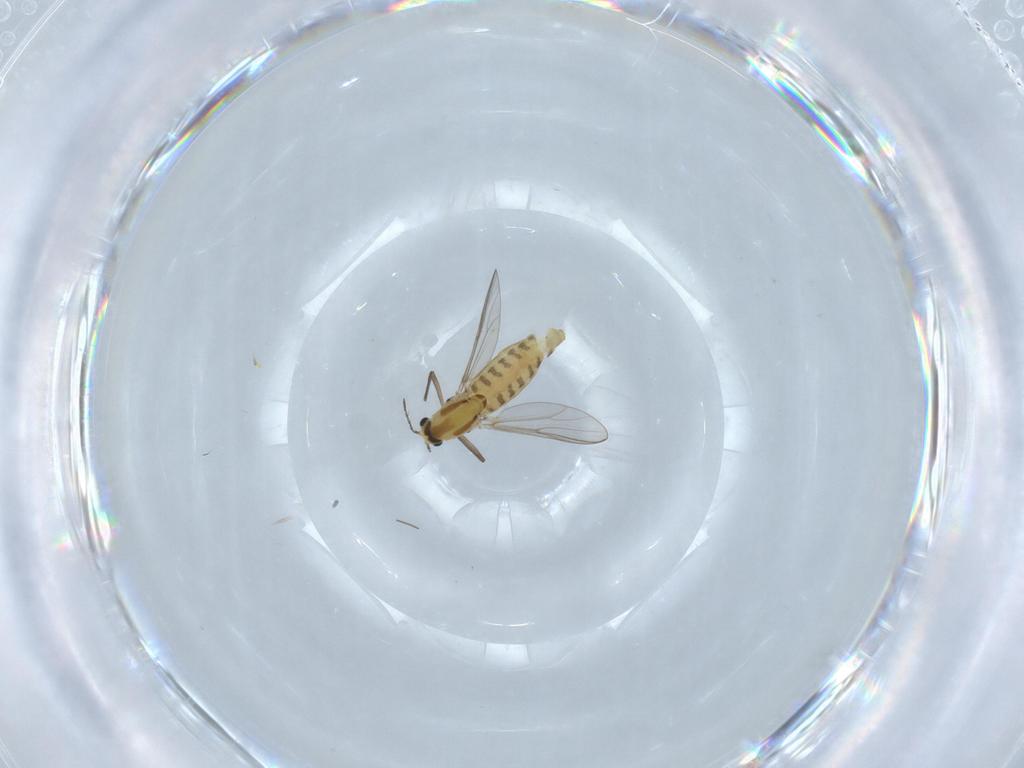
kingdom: Animalia
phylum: Arthropoda
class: Insecta
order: Diptera
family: Chironomidae
